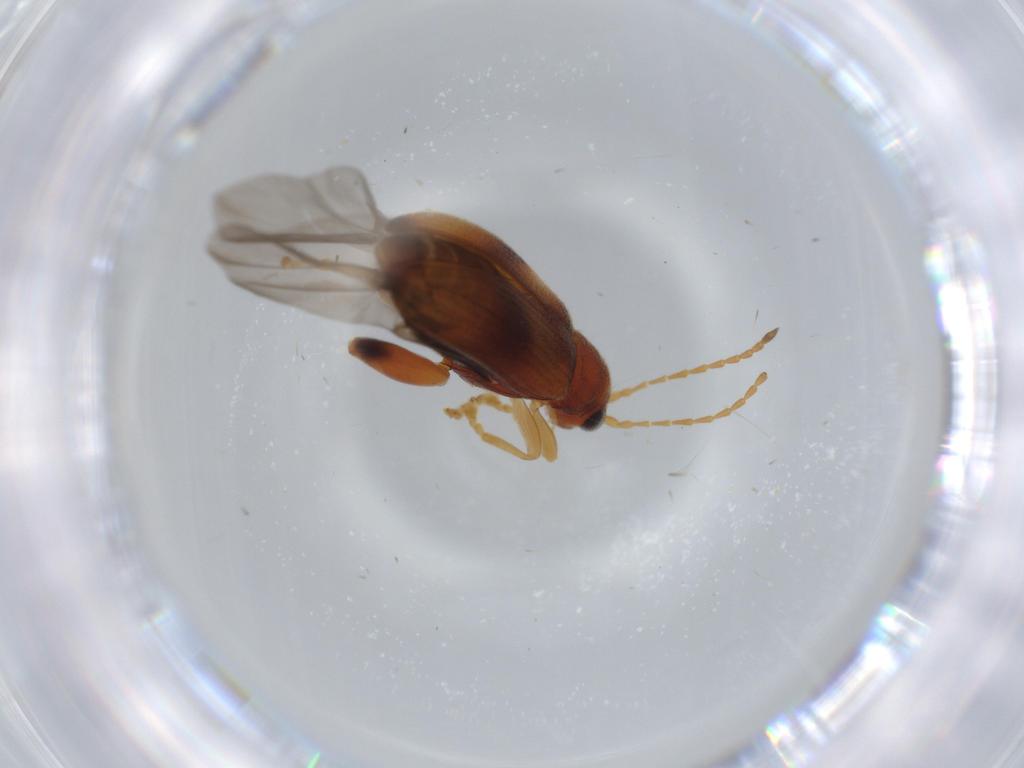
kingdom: Animalia
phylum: Arthropoda
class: Insecta
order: Coleoptera
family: Chrysomelidae
